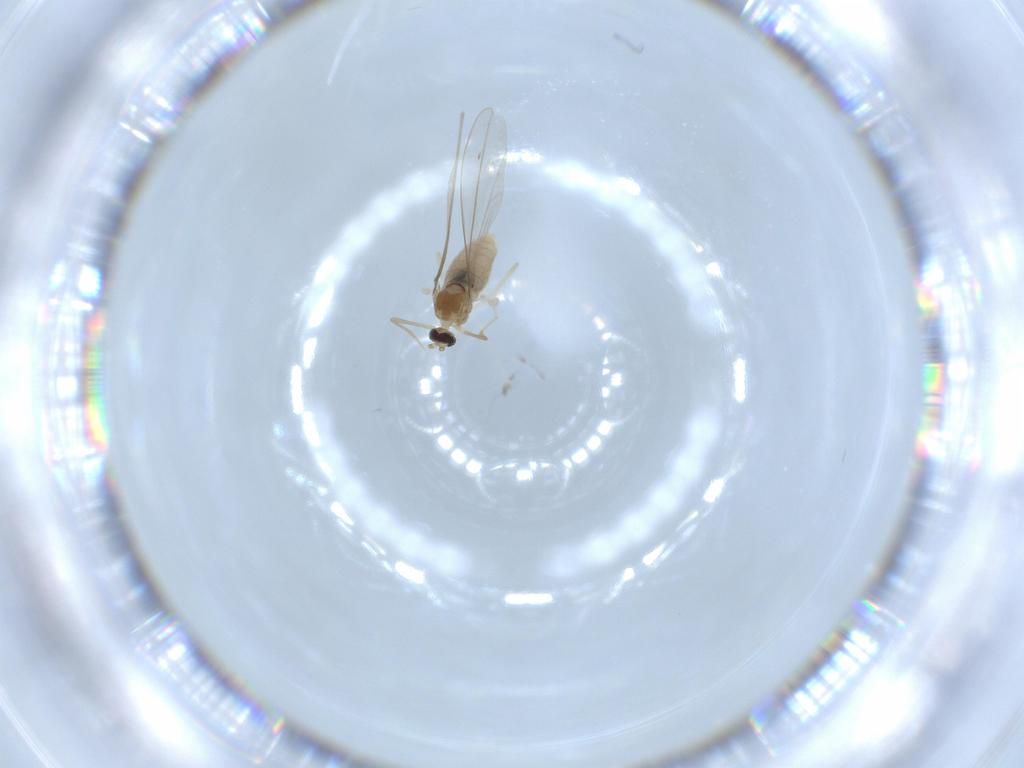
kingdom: Animalia
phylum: Arthropoda
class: Insecta
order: Diptera
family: Cecidomyiidae
